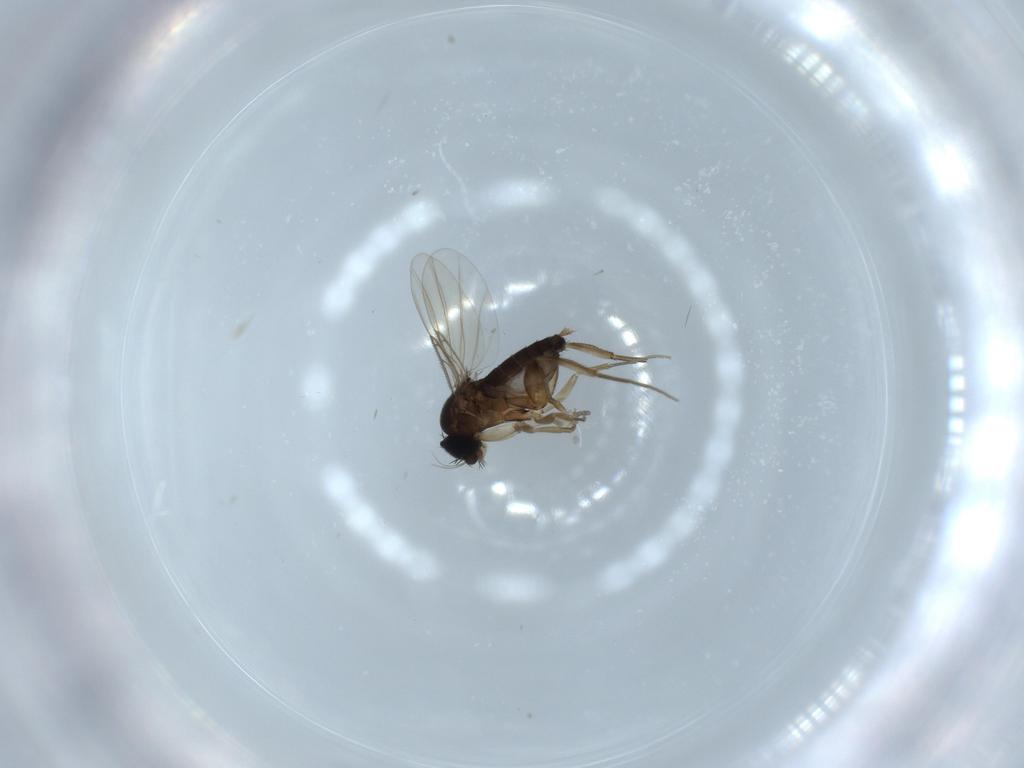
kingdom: Animalia
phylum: Arthropoda
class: Insecta
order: Diptera
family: Phoridae
